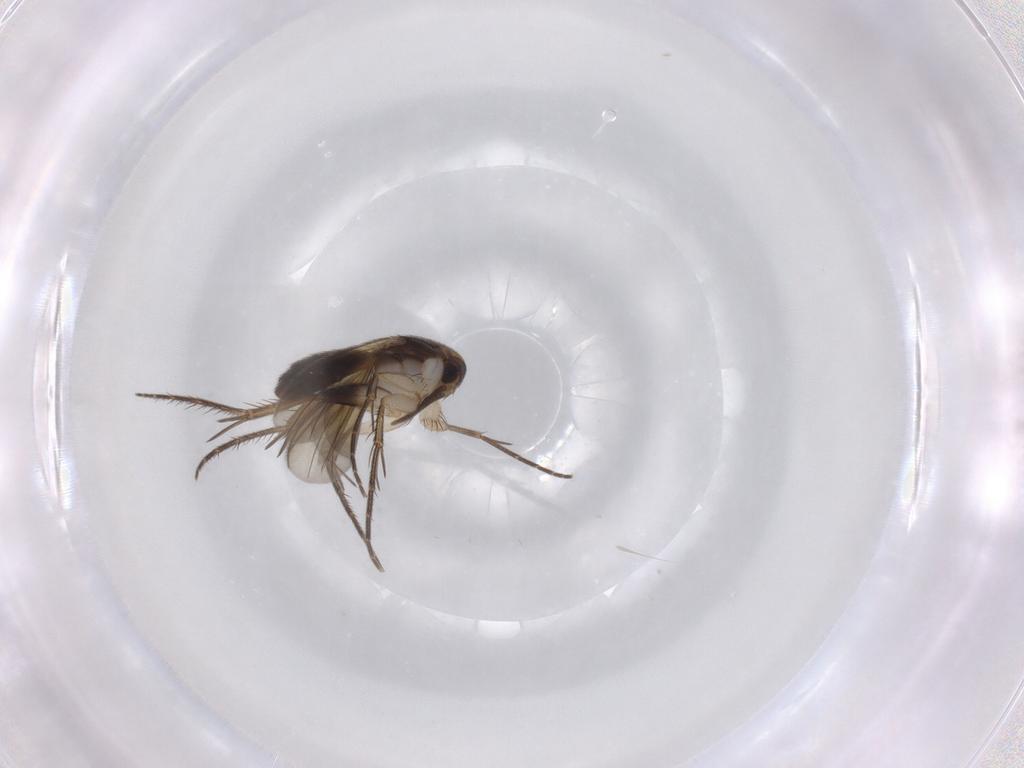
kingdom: Animalia
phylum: Arthropoda
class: Insecta
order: Diptera
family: Mycetophilidae
